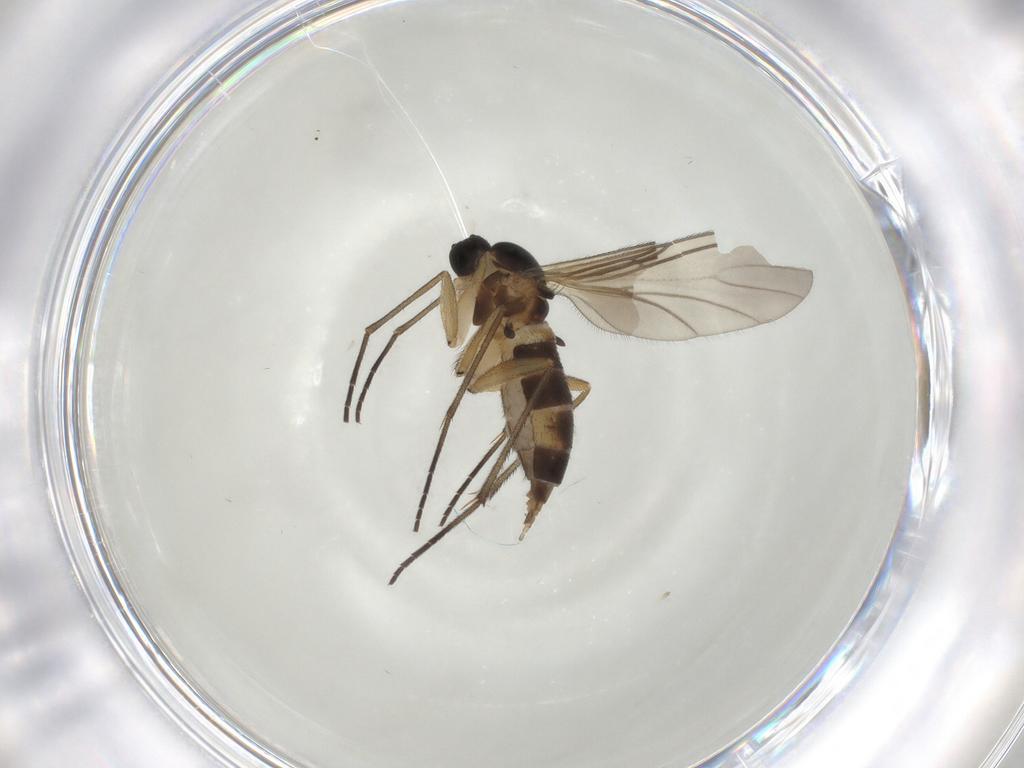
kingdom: Animalia
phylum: Arthropoda
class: Insecta
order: Diptera
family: Sciaridae
